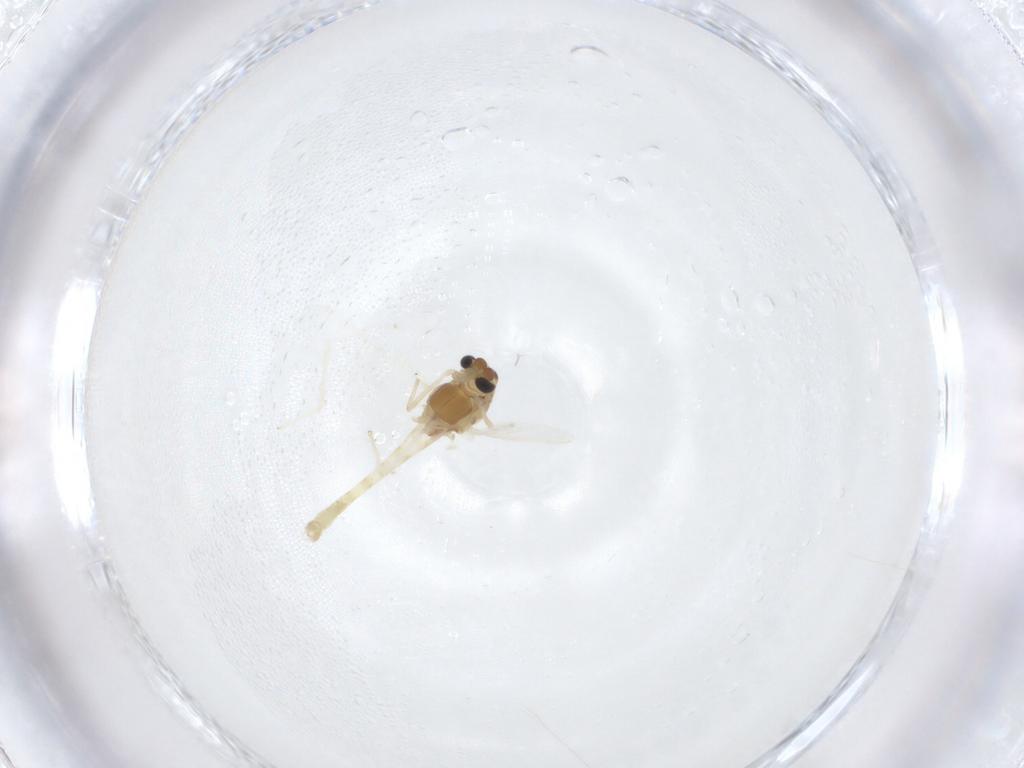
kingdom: Animalia
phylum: Arthropoda
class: Insecta
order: Diptera
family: Chironomidae
